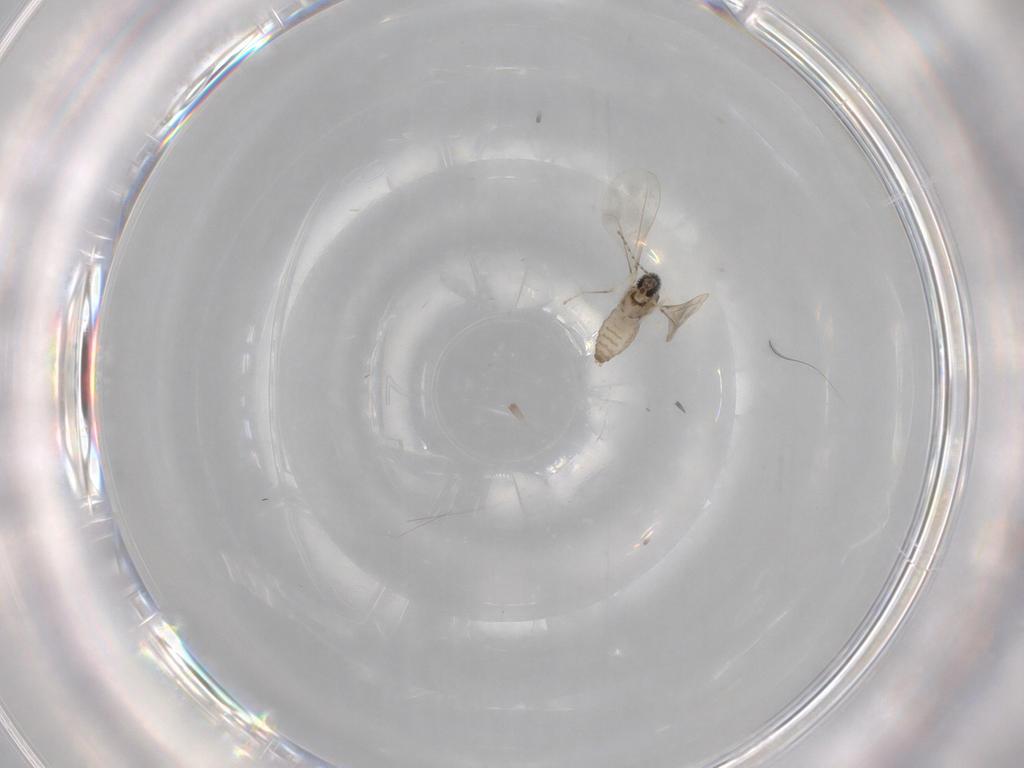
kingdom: Animalia
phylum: Arthropoda
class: Insecta
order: Diptera
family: Cecidomyiidae
